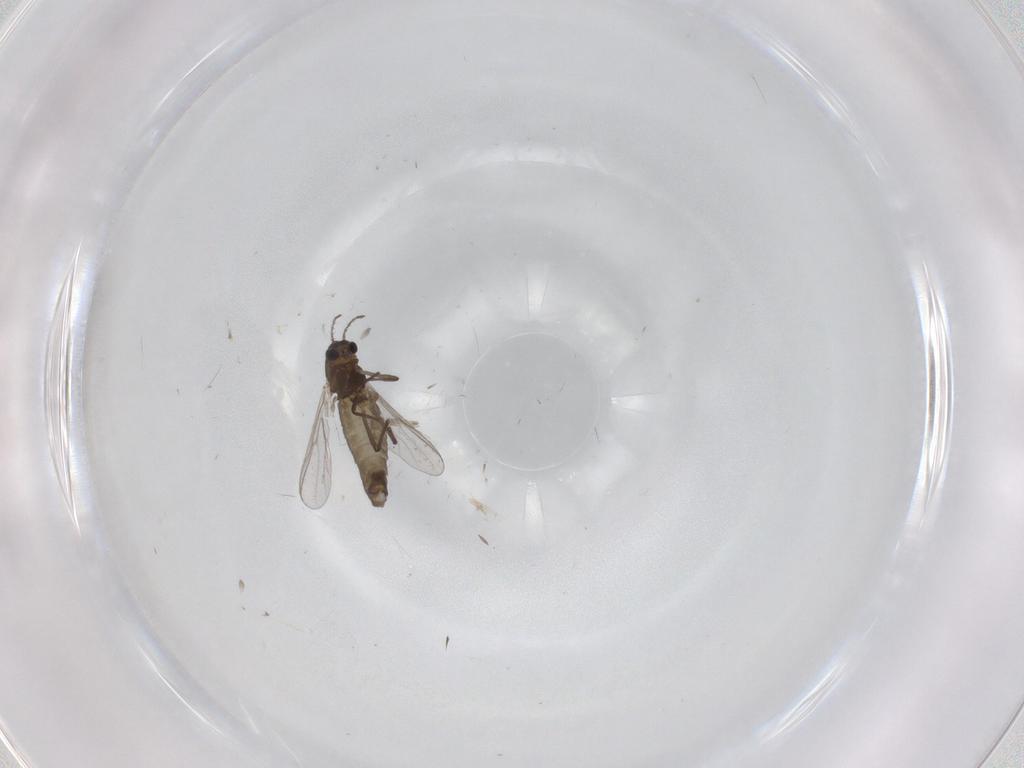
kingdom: Animalia
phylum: Arthropoda
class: Insecta
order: Diptera
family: Chironomidae
